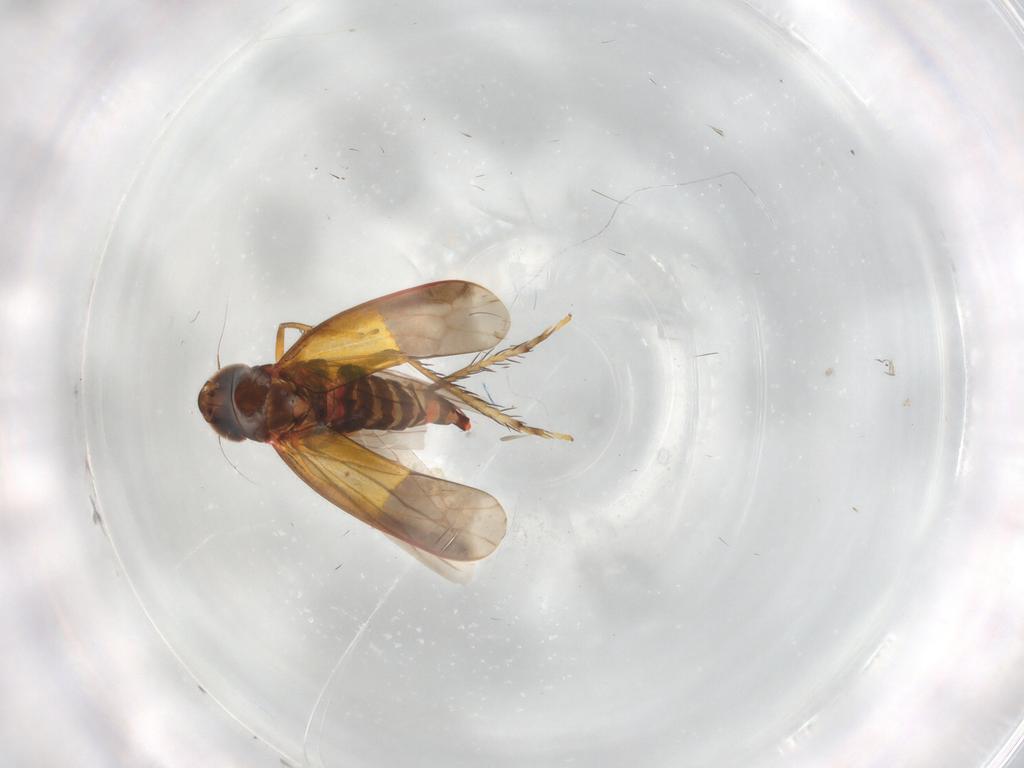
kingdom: Animalia
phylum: Arthropoda
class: Insecta
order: Hemiptera
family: Cicadellidae
